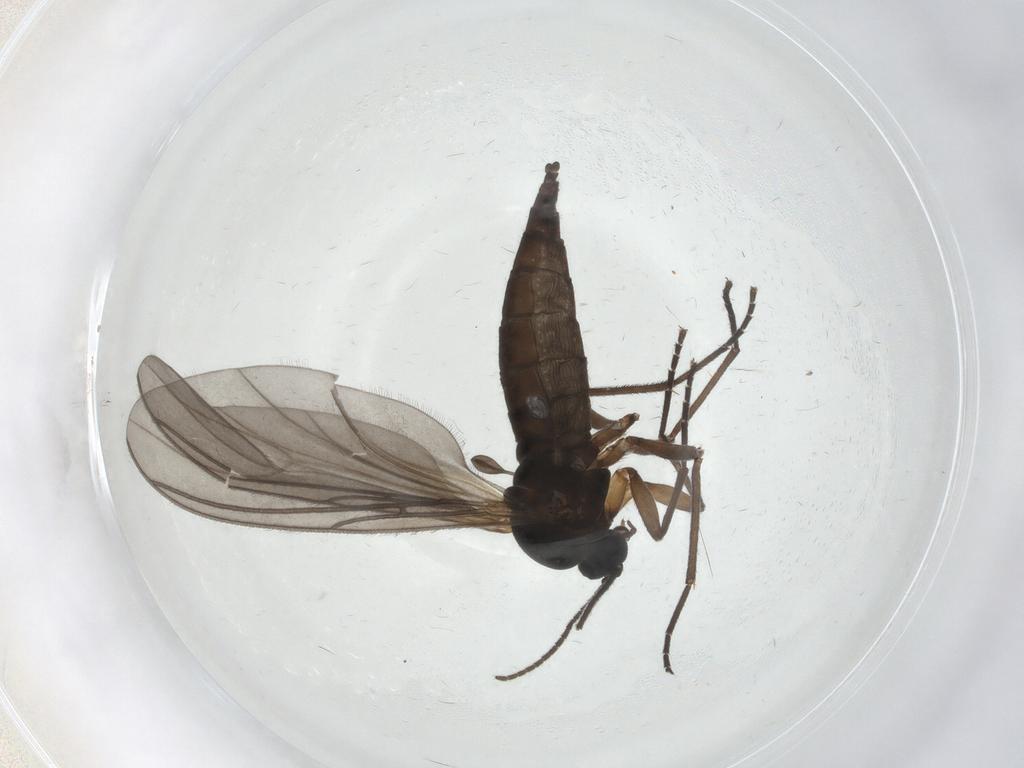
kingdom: Animalia
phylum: Arthropoda
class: Insecta
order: Diptera
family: Sciaridae
